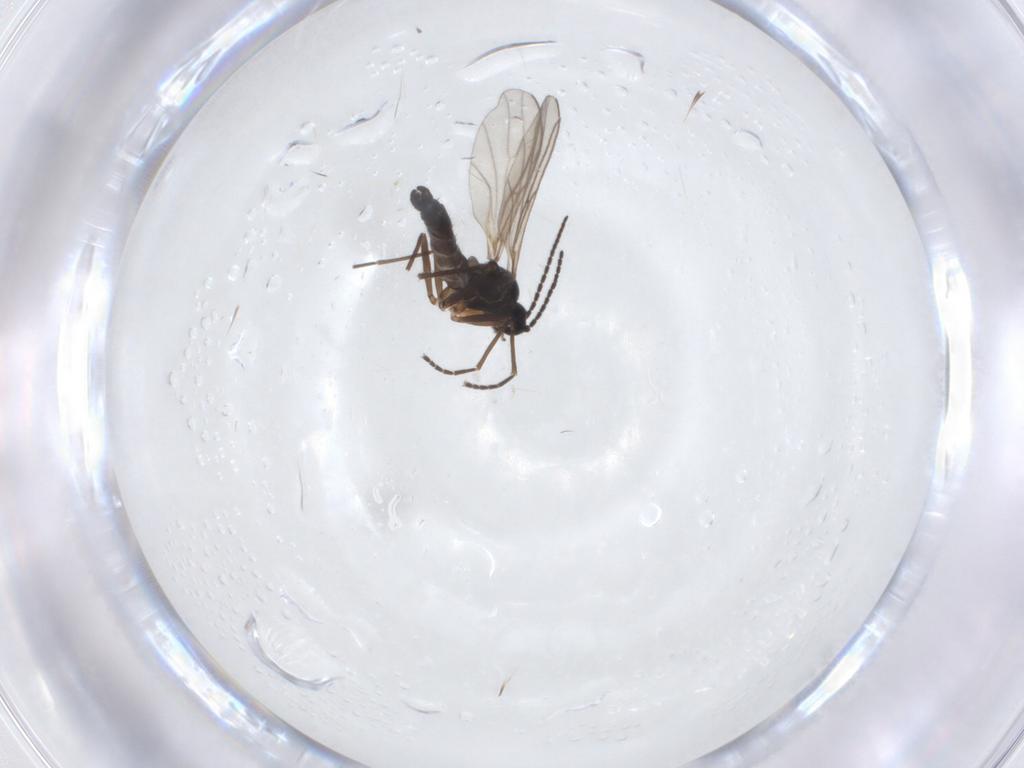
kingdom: Animalia
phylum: Arthropoda
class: Insecta
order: Diptera
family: Sciaridae
